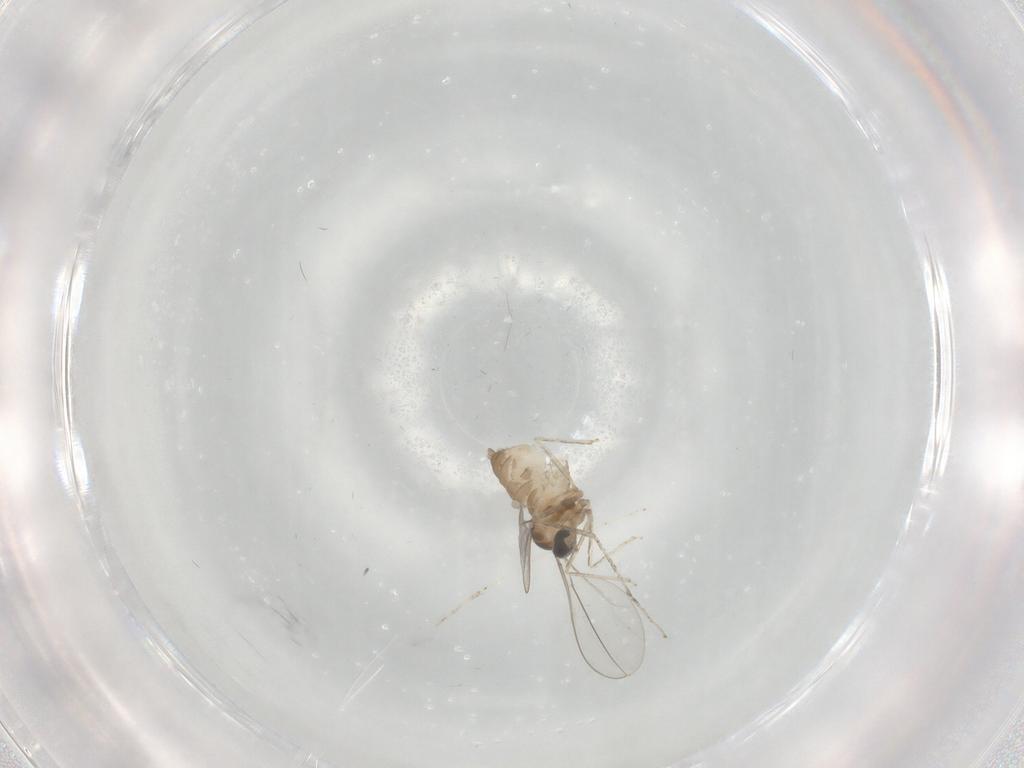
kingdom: Animalia
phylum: Arthropoda
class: Insecta
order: Diptera
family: Cecidomyiidae
